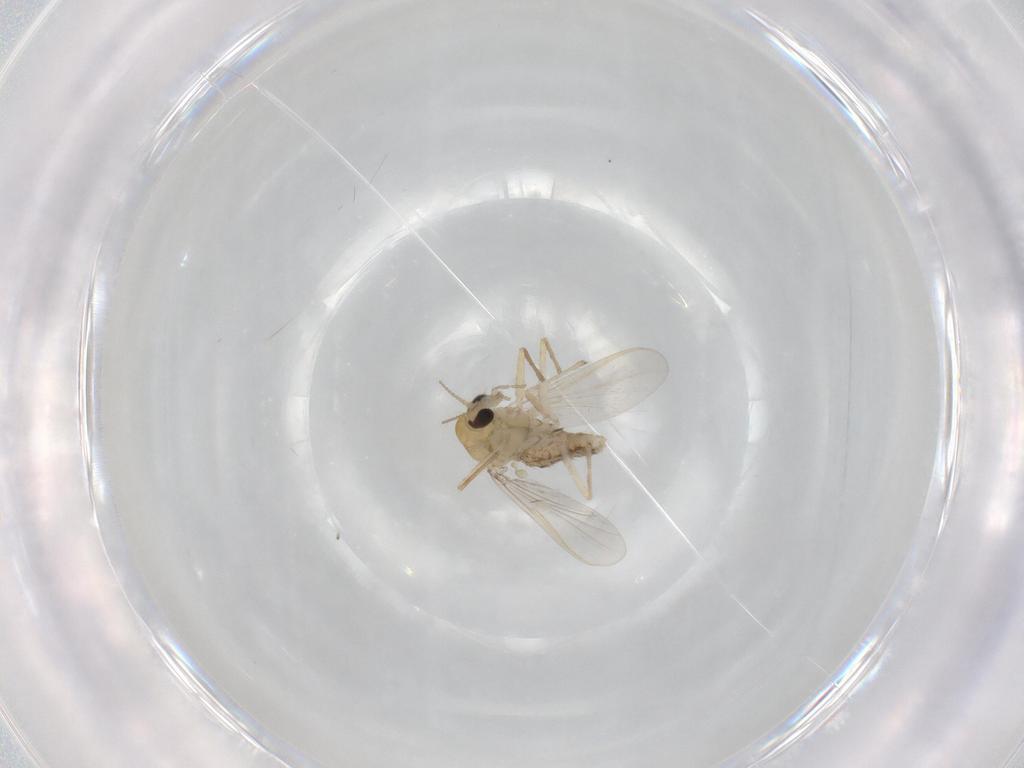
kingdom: Animalia
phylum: Arthropoda
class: Insecta
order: Diptera
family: Chironomidae
